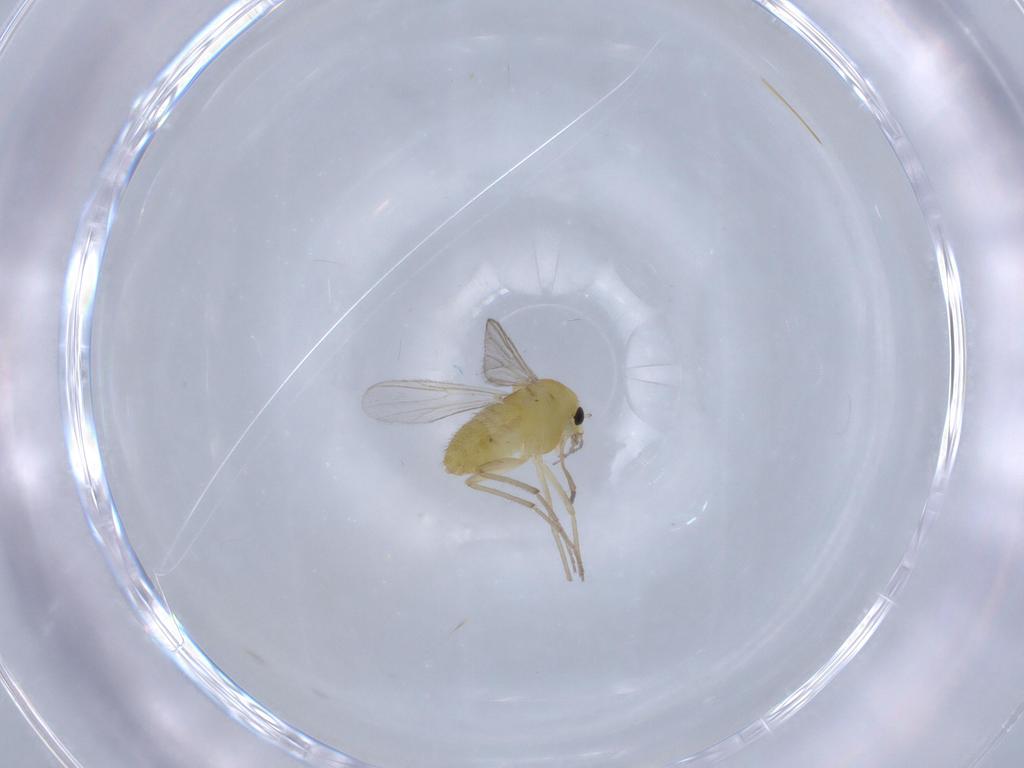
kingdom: Animalia
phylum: Arthropoda
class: Insecta
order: Diptera
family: Chironomidae
